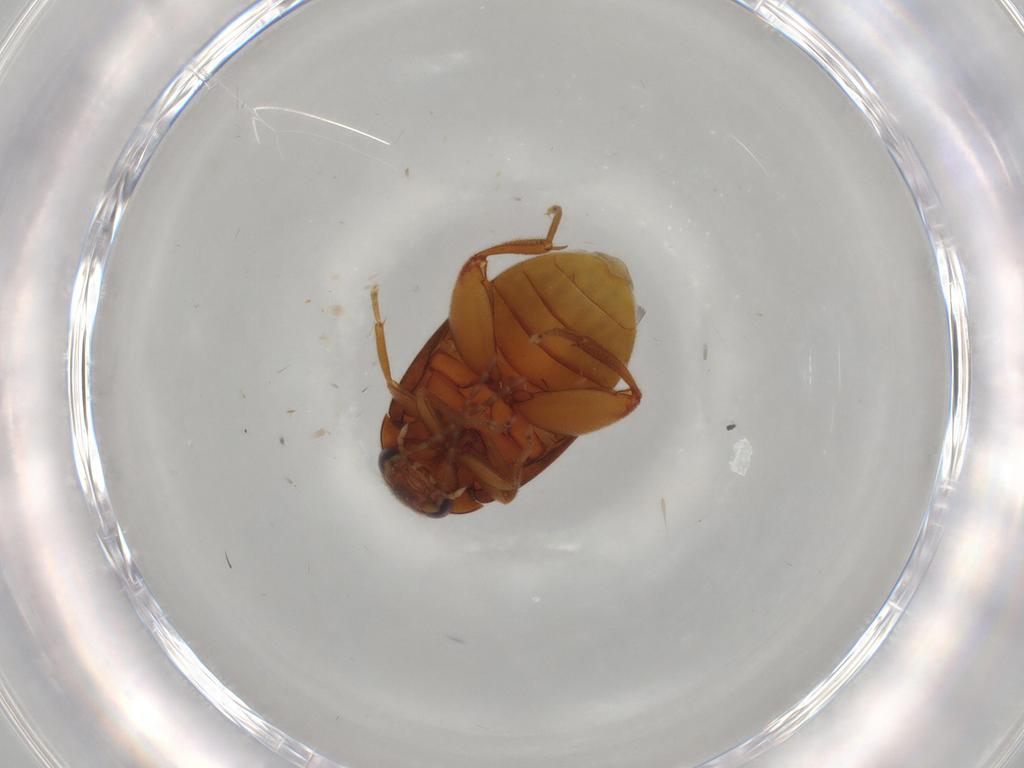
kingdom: Animalia
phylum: Arthropoda
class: Insecta
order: Coleoptera
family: Scirtidae
